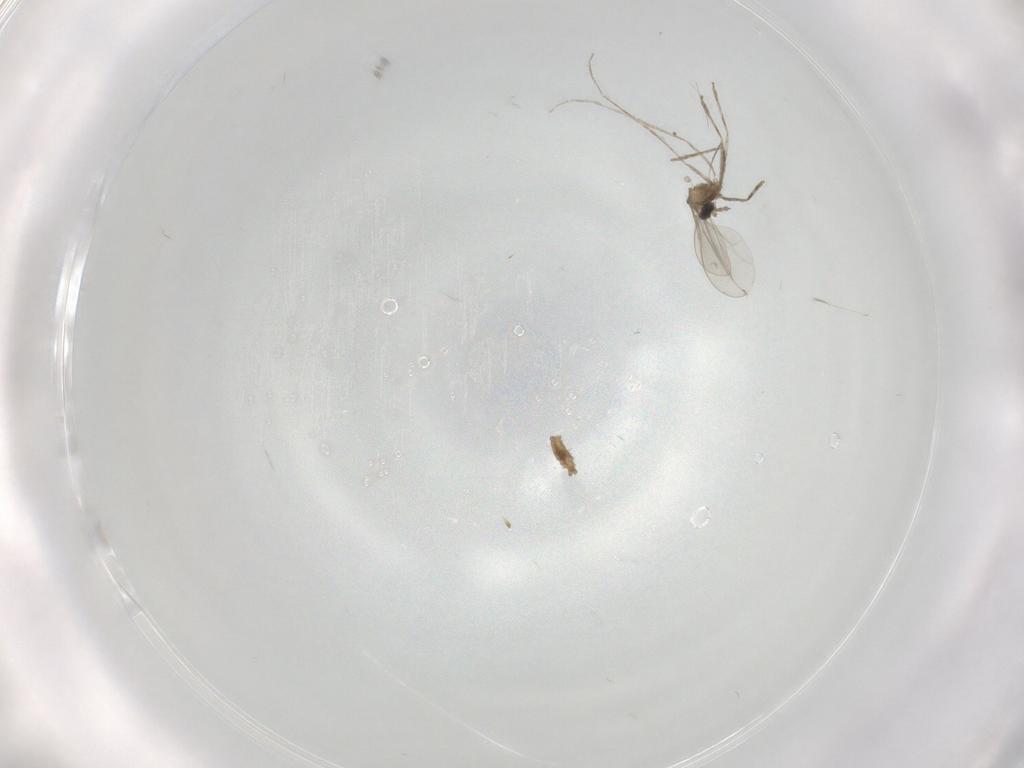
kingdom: Animalia
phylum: Arthropoda
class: Insecta
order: Diptera
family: Cecidomyiidae
